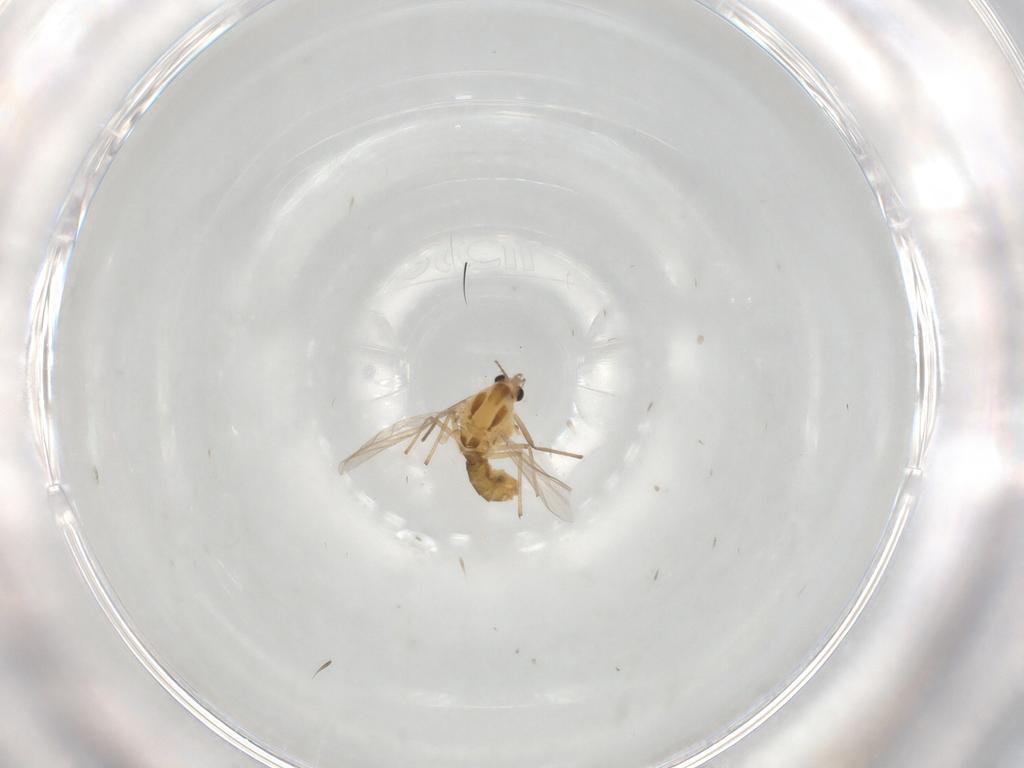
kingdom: Animalia
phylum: Arthropoda
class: Insecta
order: Diptera
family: Chironomidae
